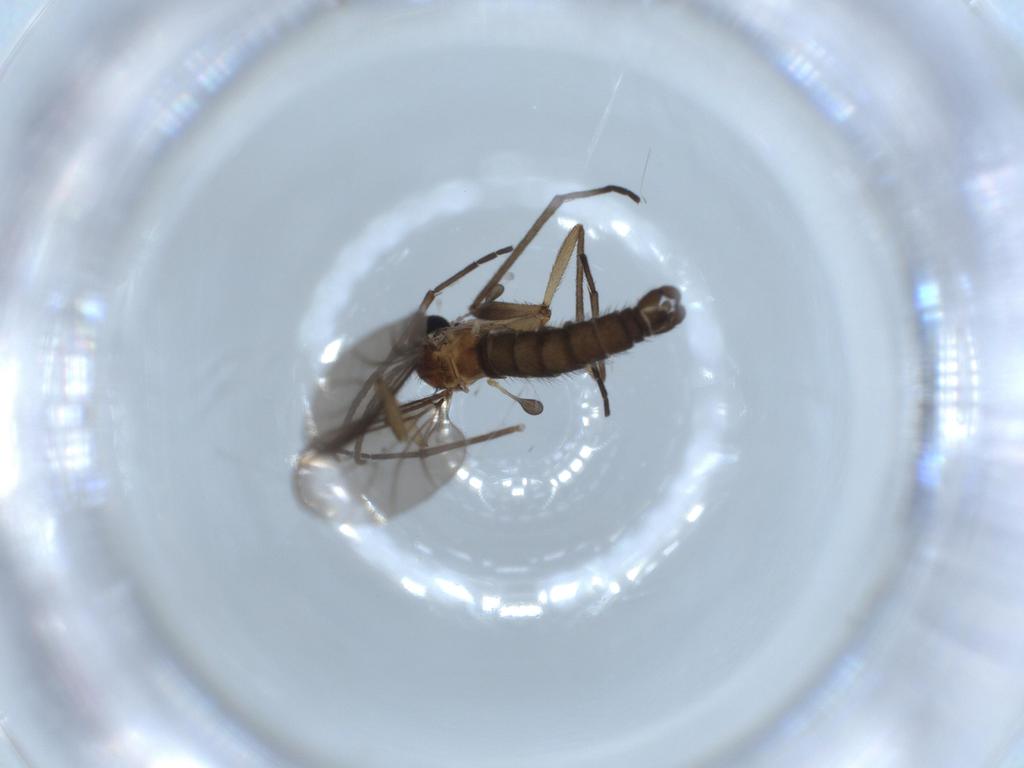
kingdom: Animalia
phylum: Arthropoda
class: Insecta
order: Diptera
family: Sciaridae
